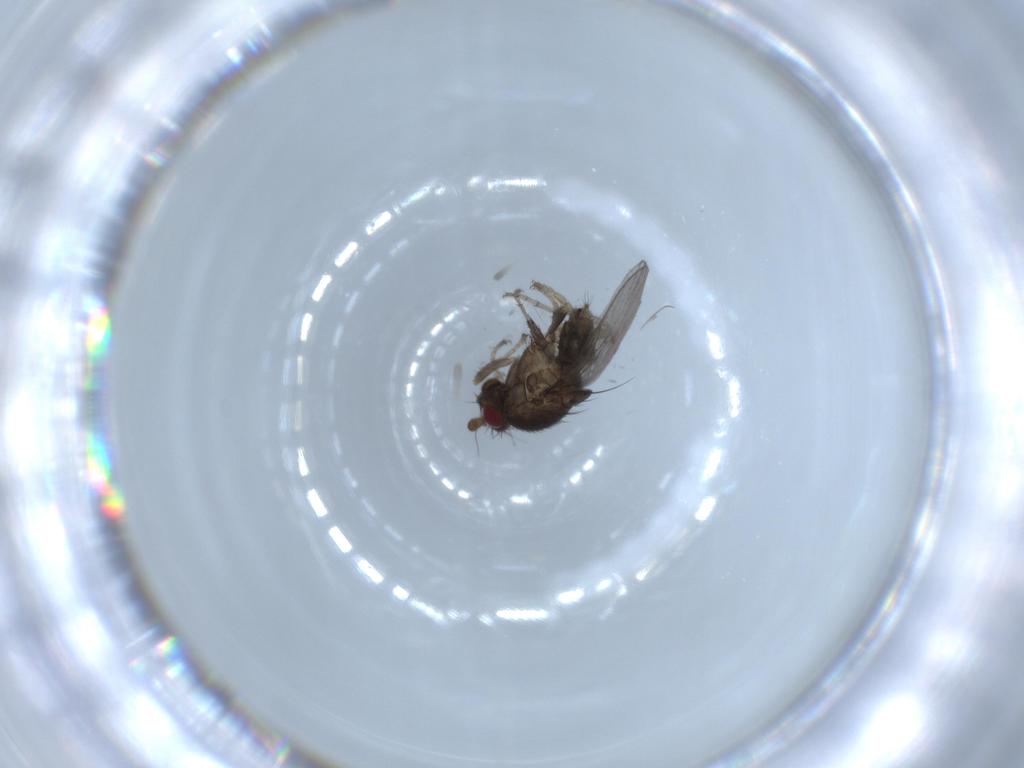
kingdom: Animalia
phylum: Arthropoda
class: Insecta
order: Diptera
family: Sphaeroceridae
